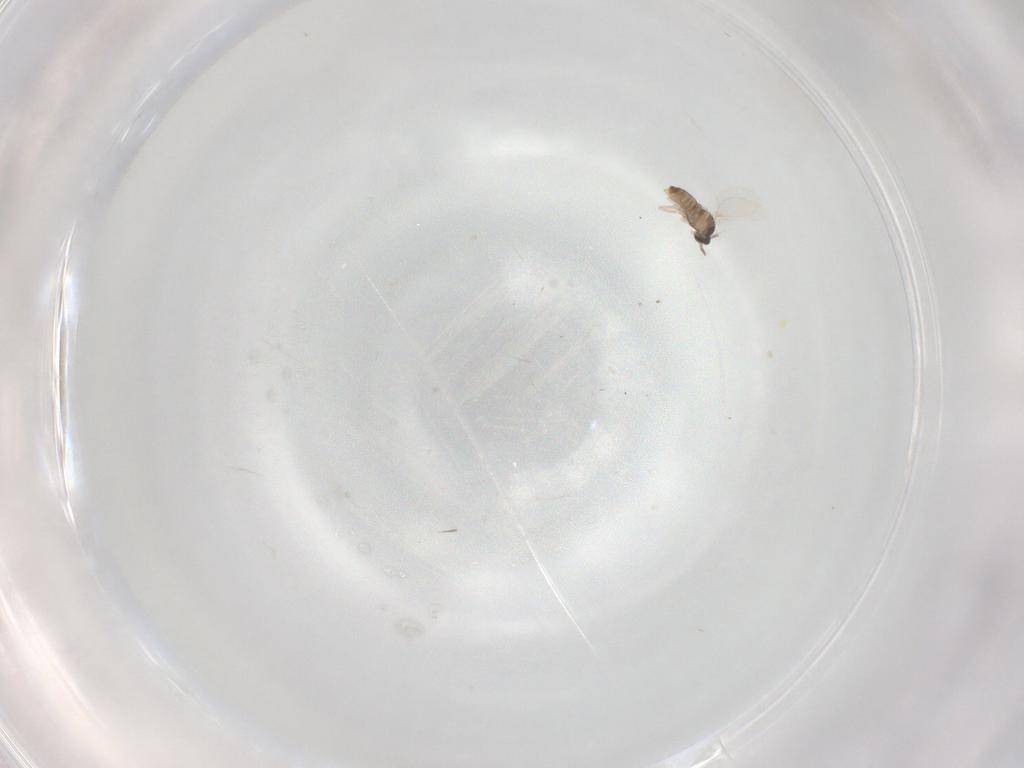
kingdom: Animalia
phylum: Arthropoda
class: Insecta
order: Diptera
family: Cecidomyiidae
